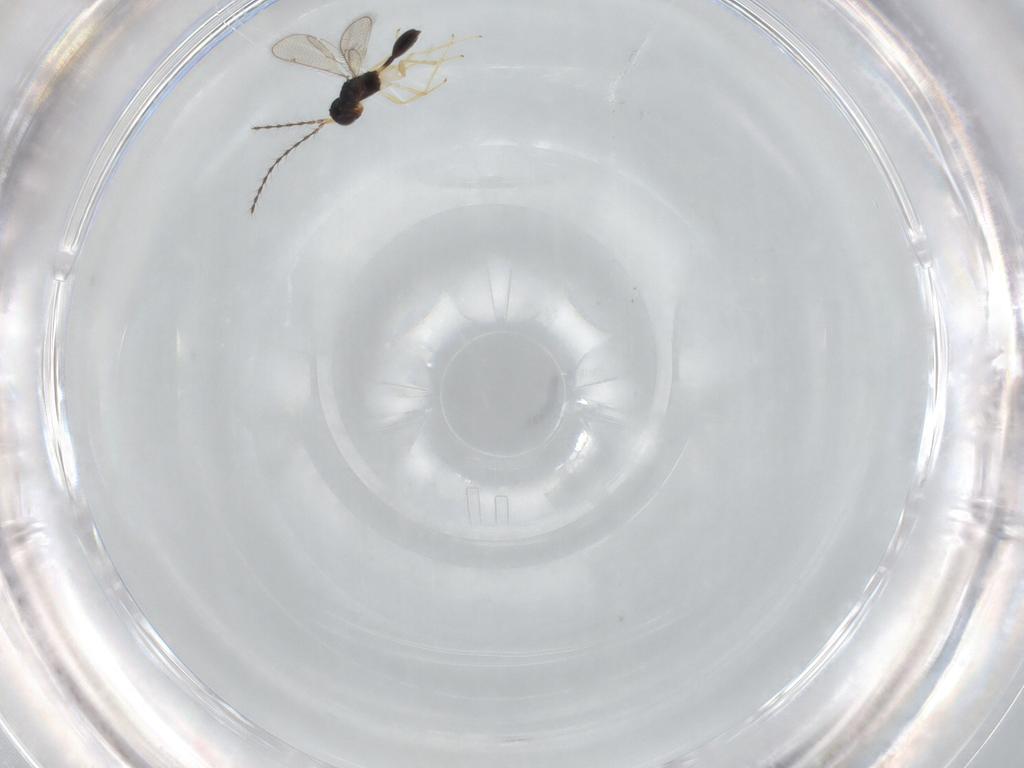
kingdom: Animalia
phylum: Arthropoda
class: Insecta
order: Hymenoptera
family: Diparidae
